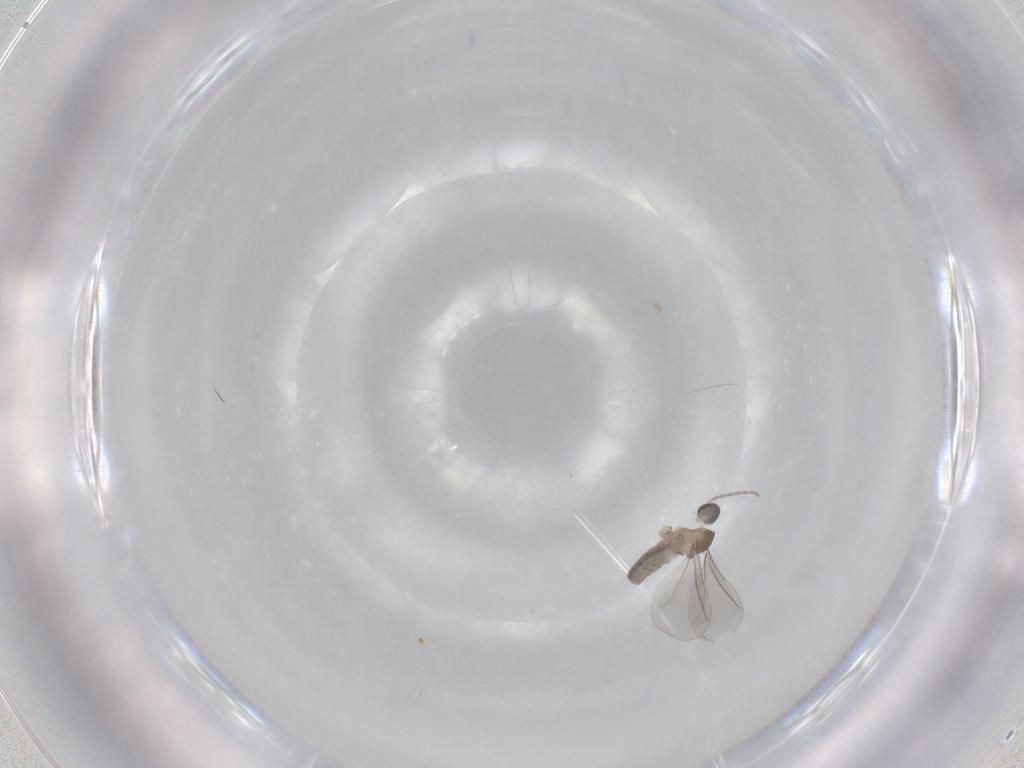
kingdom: Animalia
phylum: Arthropoda
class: Insecta
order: Diptera
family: Cecidomyiidae
